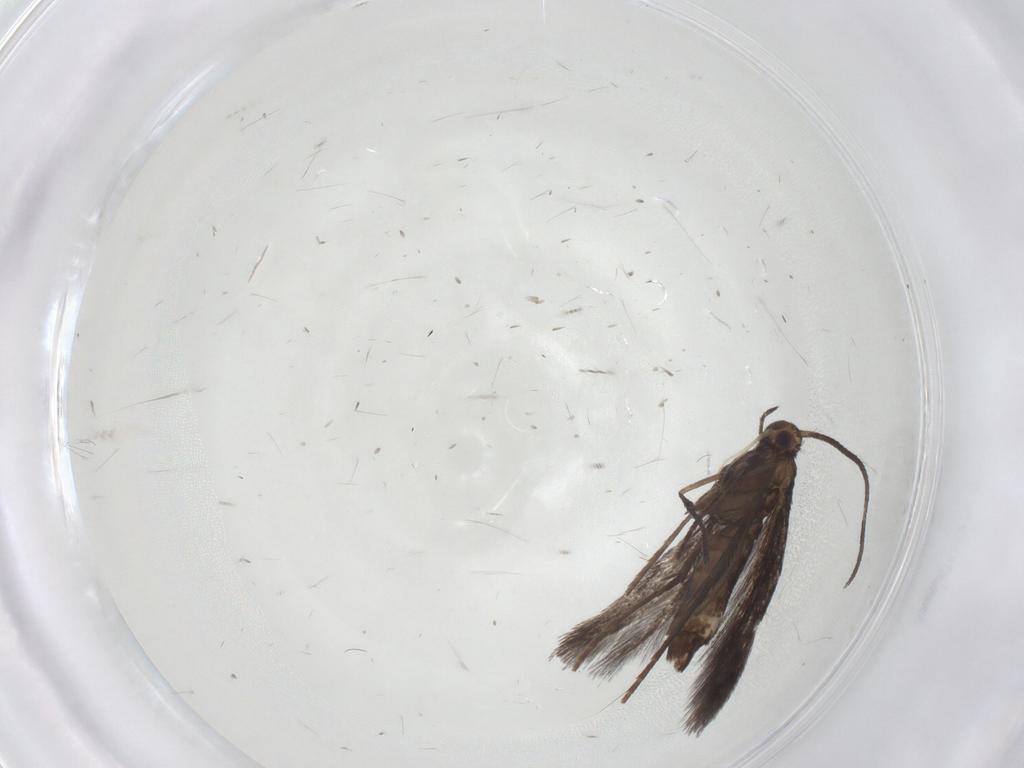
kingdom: Animalia
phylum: Arthropoda
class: Insecta
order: Lepidoptera
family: Gracillariidae
